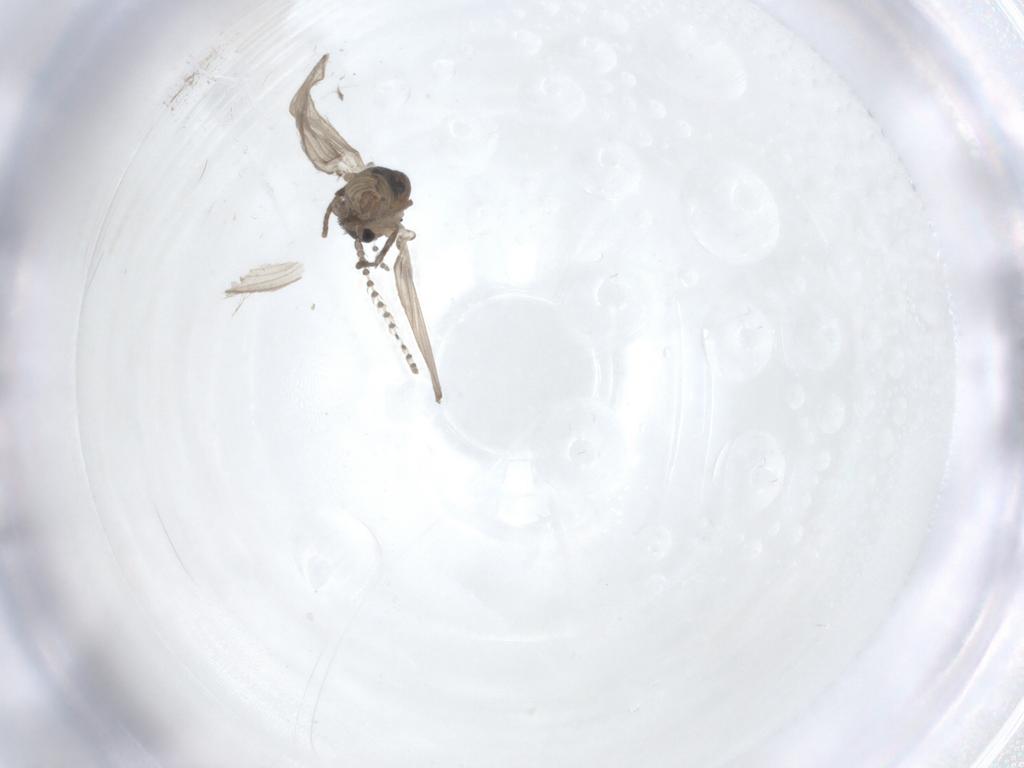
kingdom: Animalia
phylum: Arthropoda
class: Insecta
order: Diptera
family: Psychodidae
